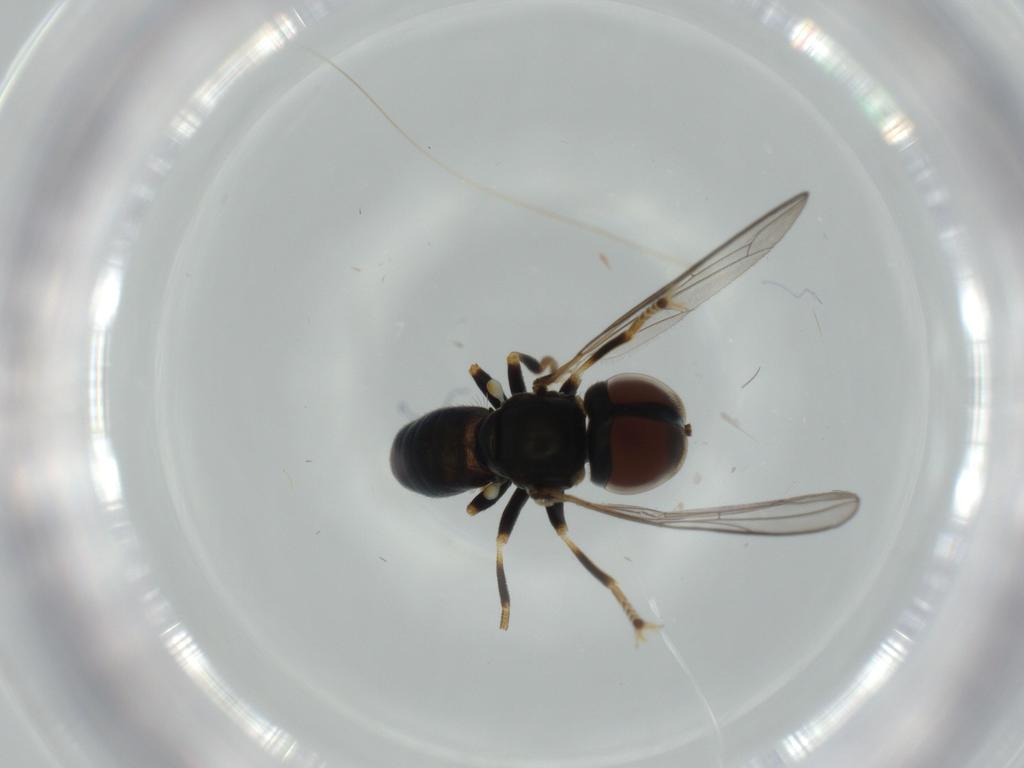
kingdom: Animalia
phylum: Arthropoda
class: Insecta
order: Diptera
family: Pipunculidae
